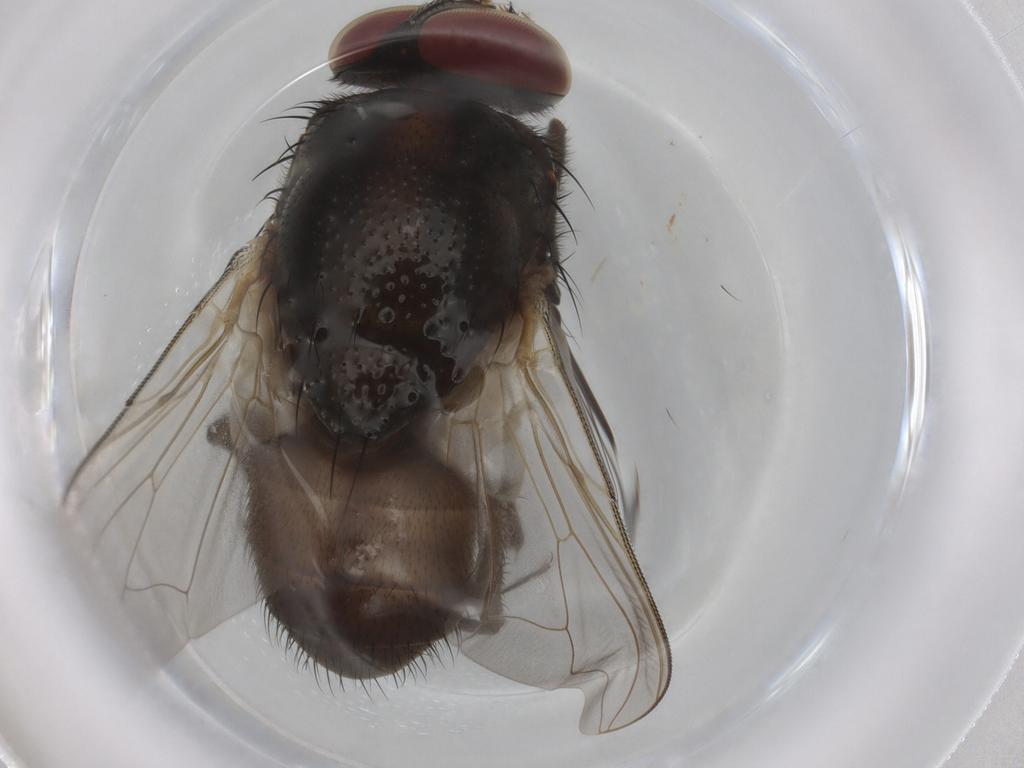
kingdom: Animalia
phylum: Arthropoda
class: Insecta
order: Diptera
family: Muscidae
